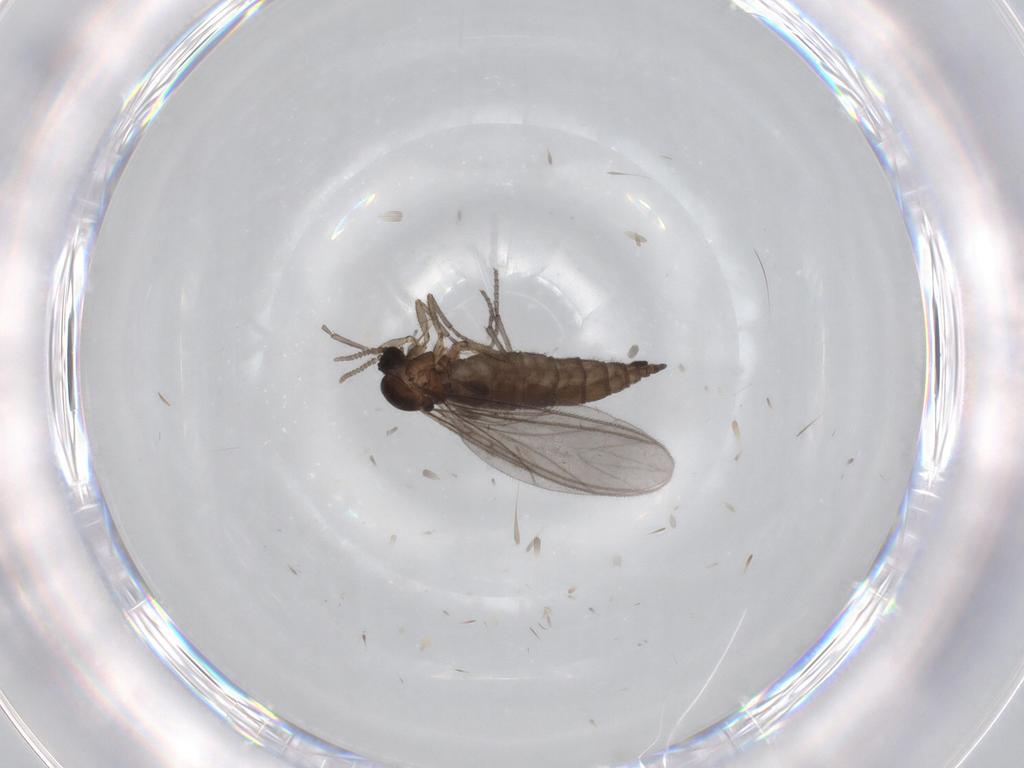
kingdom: Animalia
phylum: Arthropoda
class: Insecta
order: Diptera
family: Sciaridae
